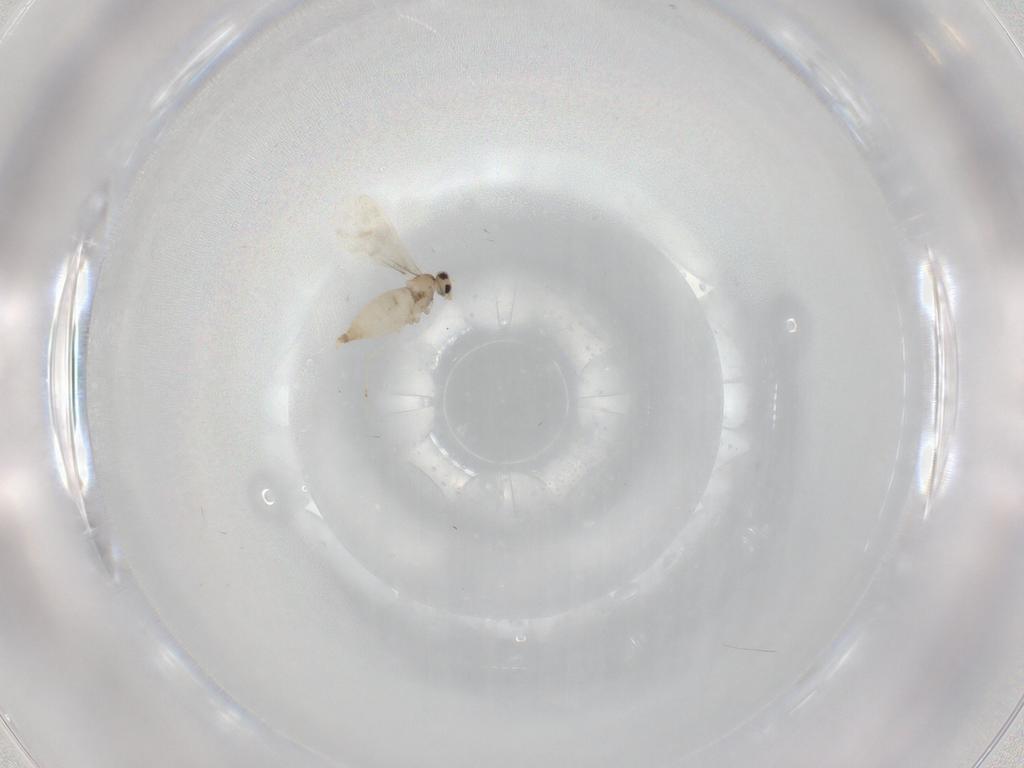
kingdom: Animalia
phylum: Arthropoda
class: Insecta
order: Diptera
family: Cecidomyiidae
